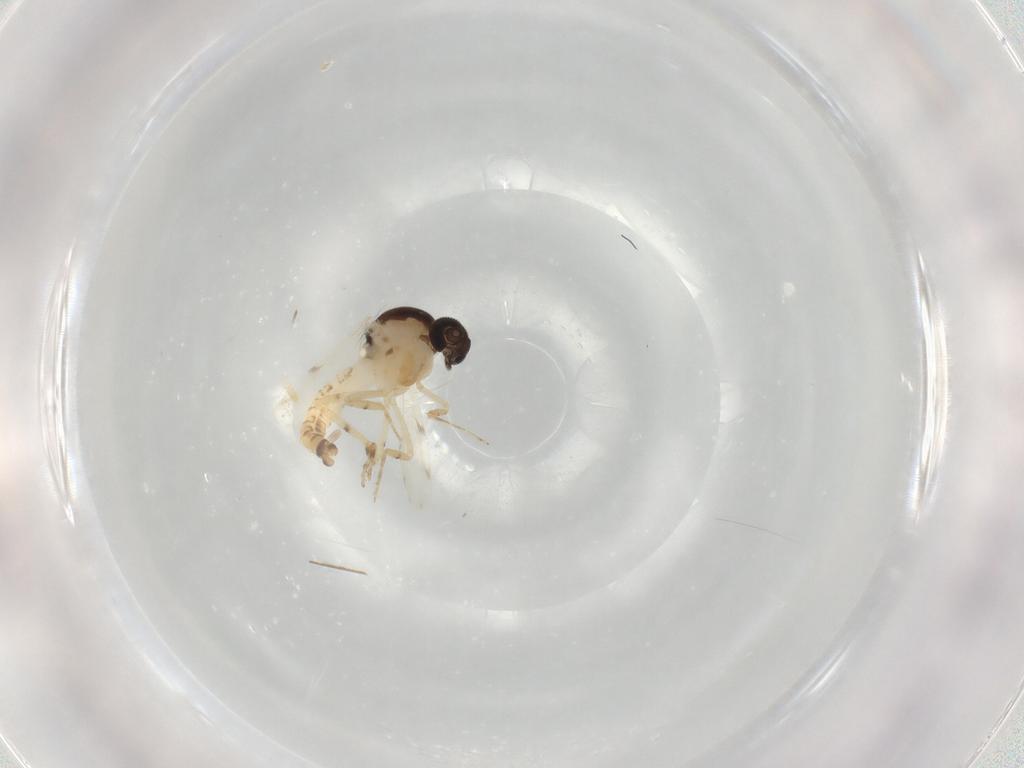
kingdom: Animalia
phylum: Arthropoda
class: Insecta
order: Diptera
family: Ceratopogonidae
